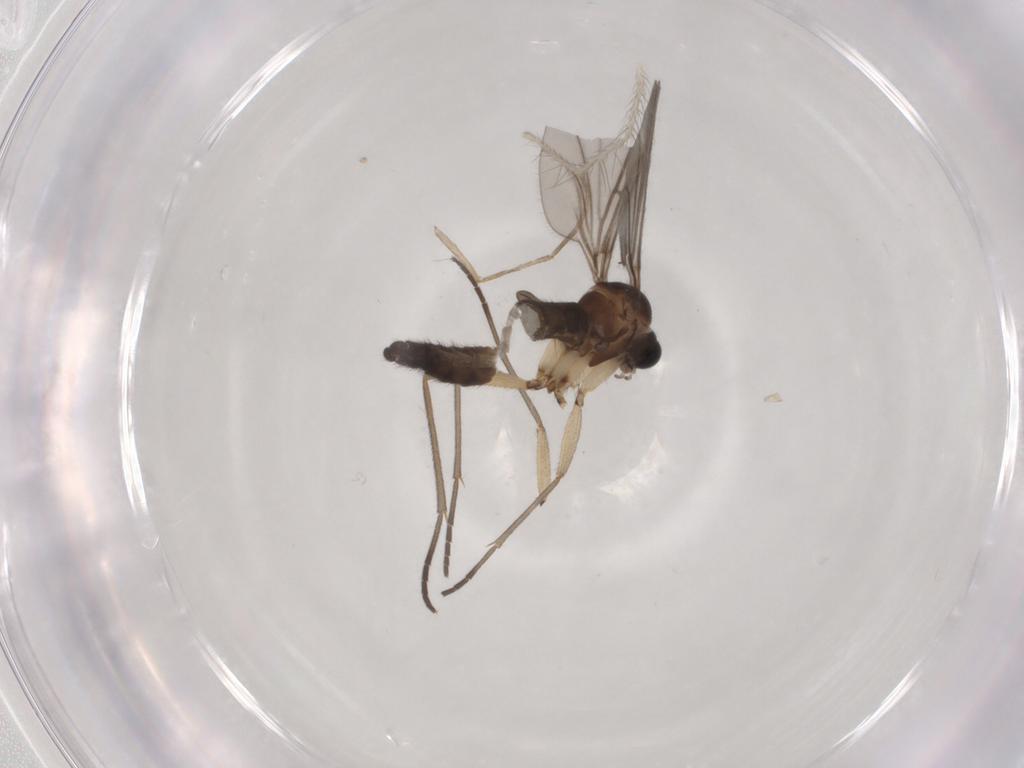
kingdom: Animalia
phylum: Arthropoda
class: Insecta
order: Diptera
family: Sciaridae
